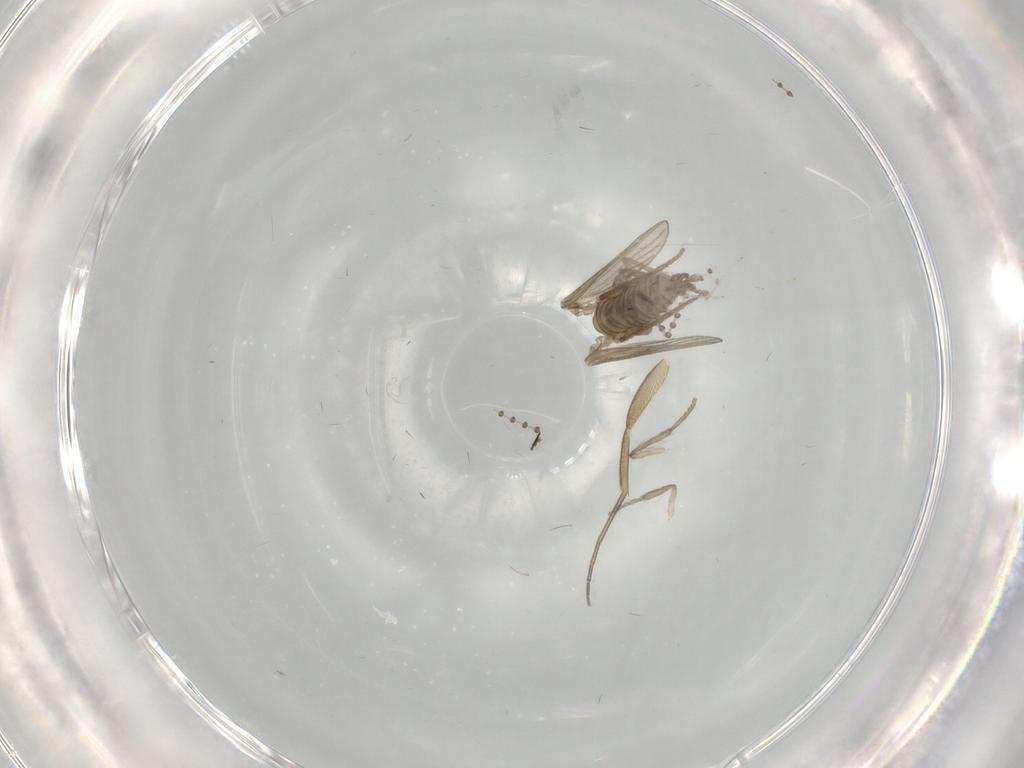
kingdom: Animalia
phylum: Arthropoda
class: Insecta
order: Diptera
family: Psychodidae
